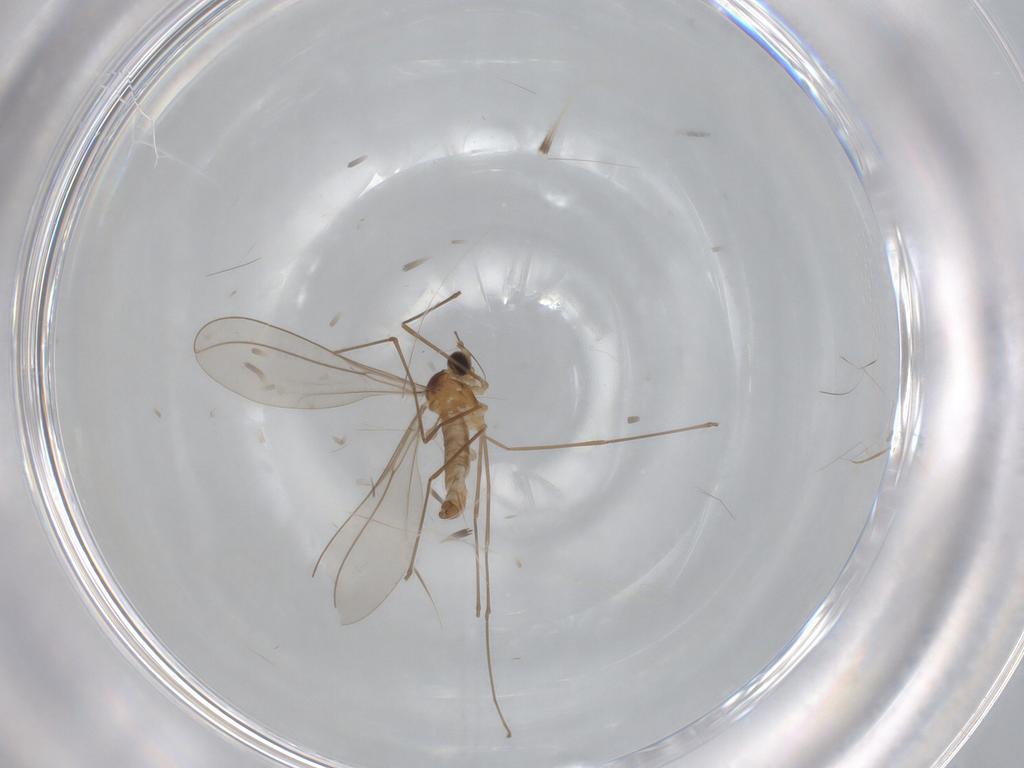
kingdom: Animalia
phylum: Arthropoda
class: Insecta
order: Diptera
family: Cecidomyiidae
